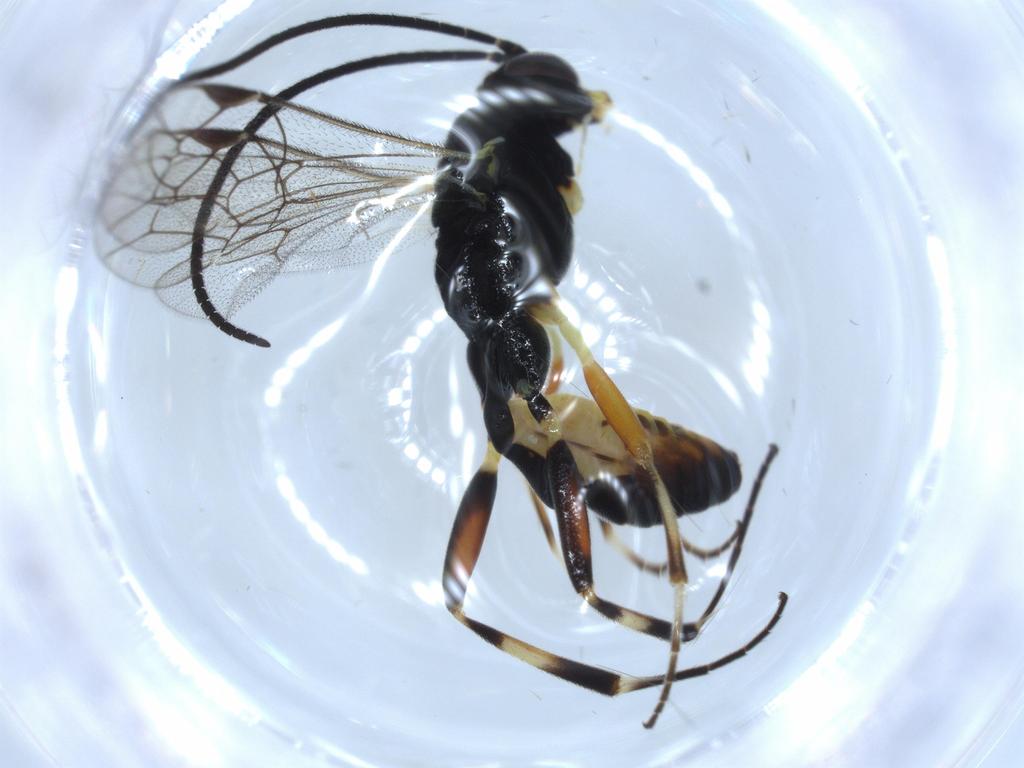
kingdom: Animalia
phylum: Arthropoda
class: Insecta
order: Hymenoptera
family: Ichneumonidae
